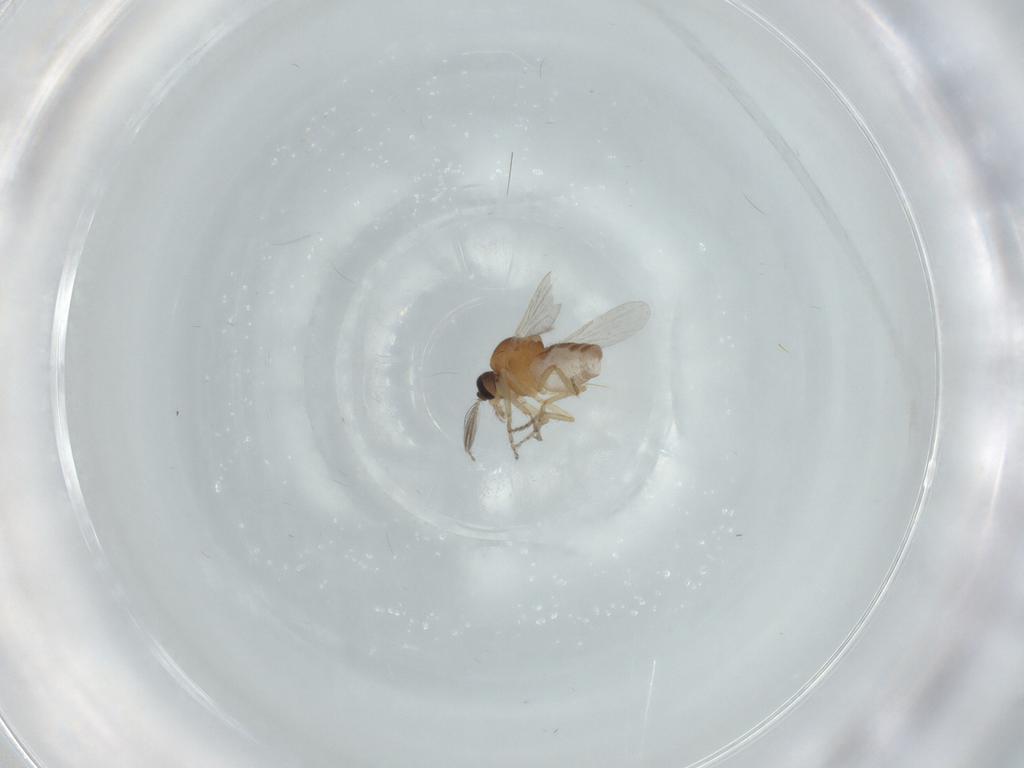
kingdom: Animalia
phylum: Arthropoda
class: Insecta
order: Diptera
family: Ceratopogonidae
